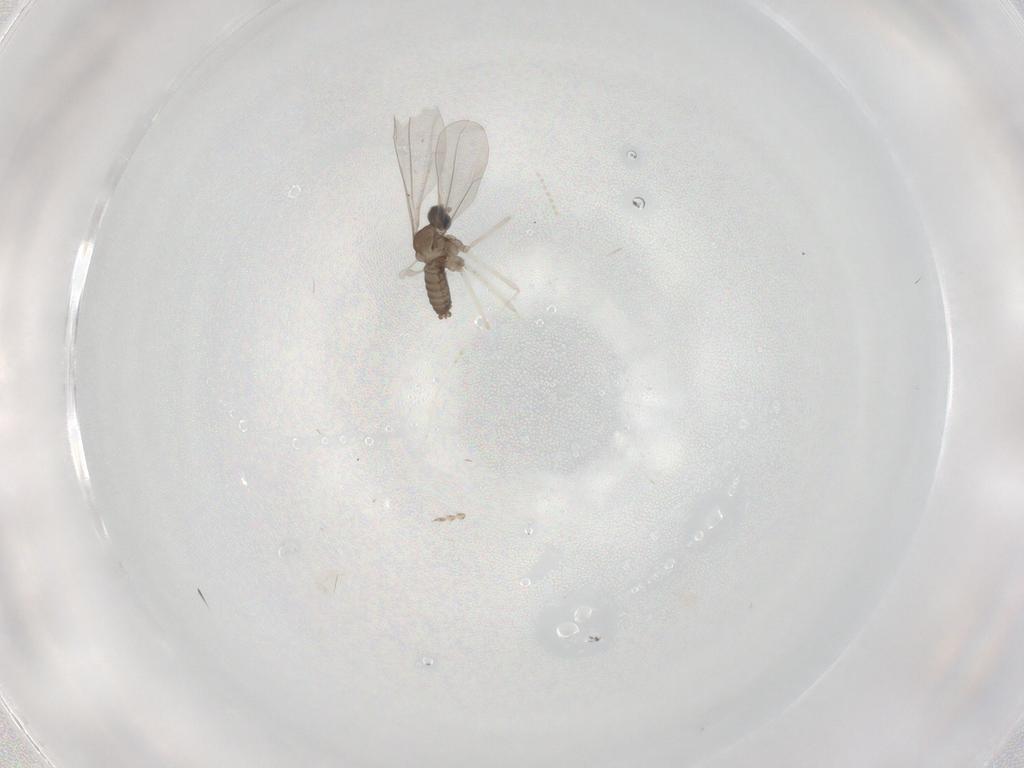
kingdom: Animalia
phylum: Arthropoda
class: Insecta
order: Diptera
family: Cecidomyiidae
